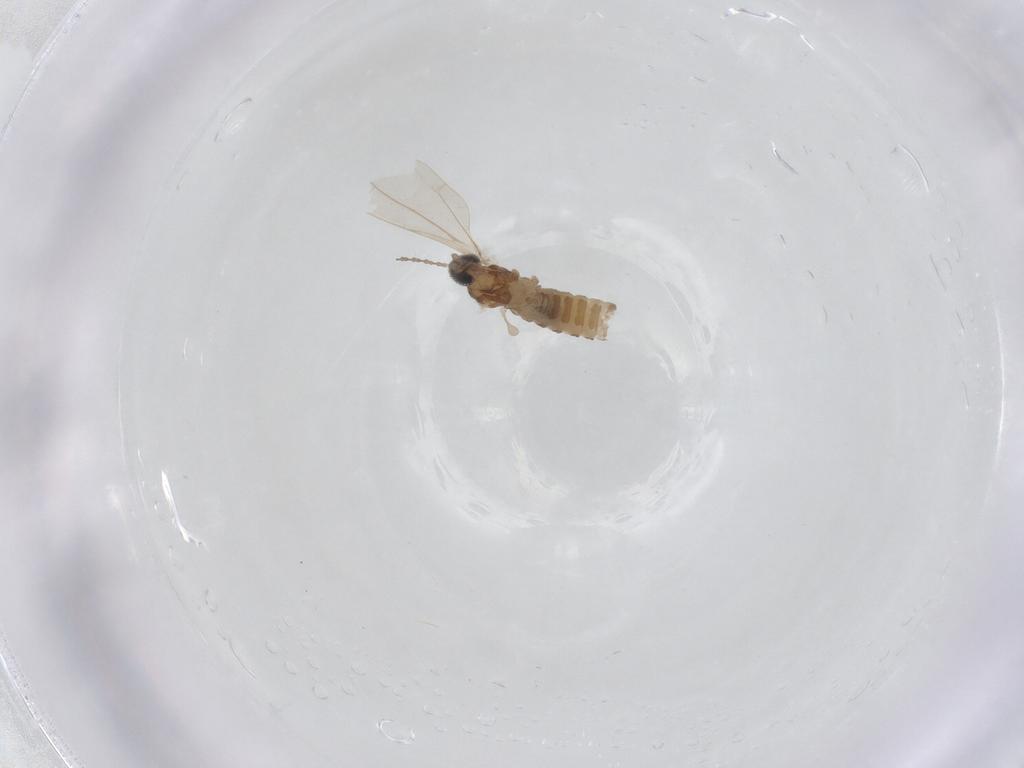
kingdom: Animalia
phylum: Arthropoda
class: Insecta
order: Diptera
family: Cecidomyiidae
